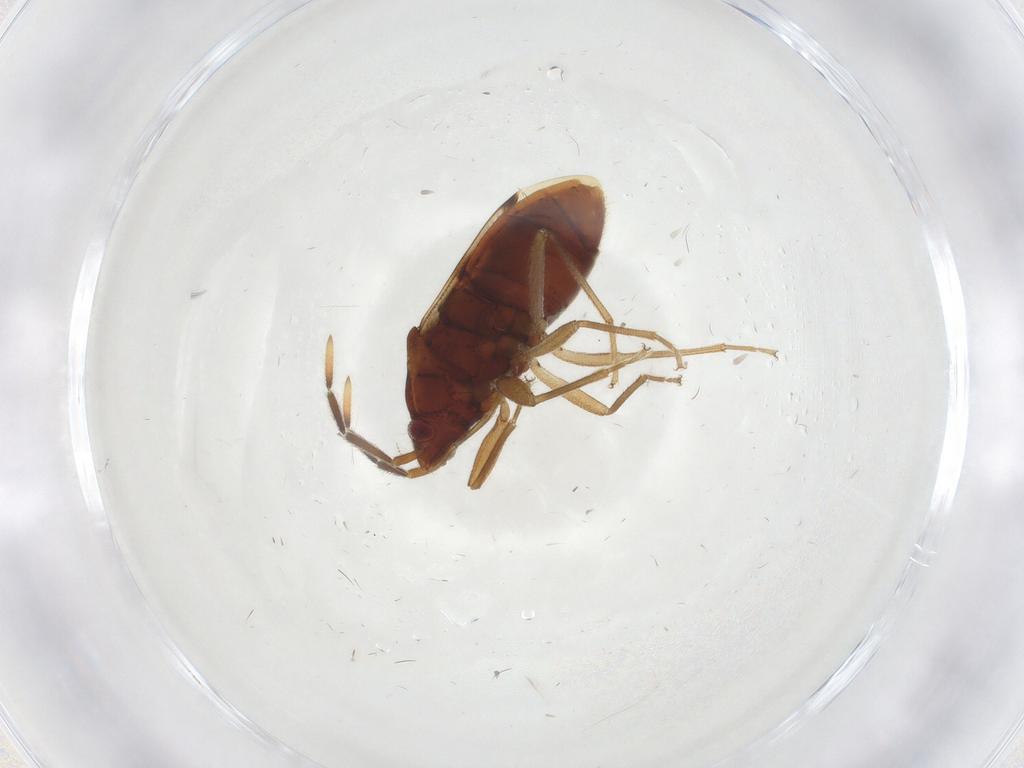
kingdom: Animalia
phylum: Arthropoda
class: Insecta
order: Hemiptera
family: Rhyparochromidae
